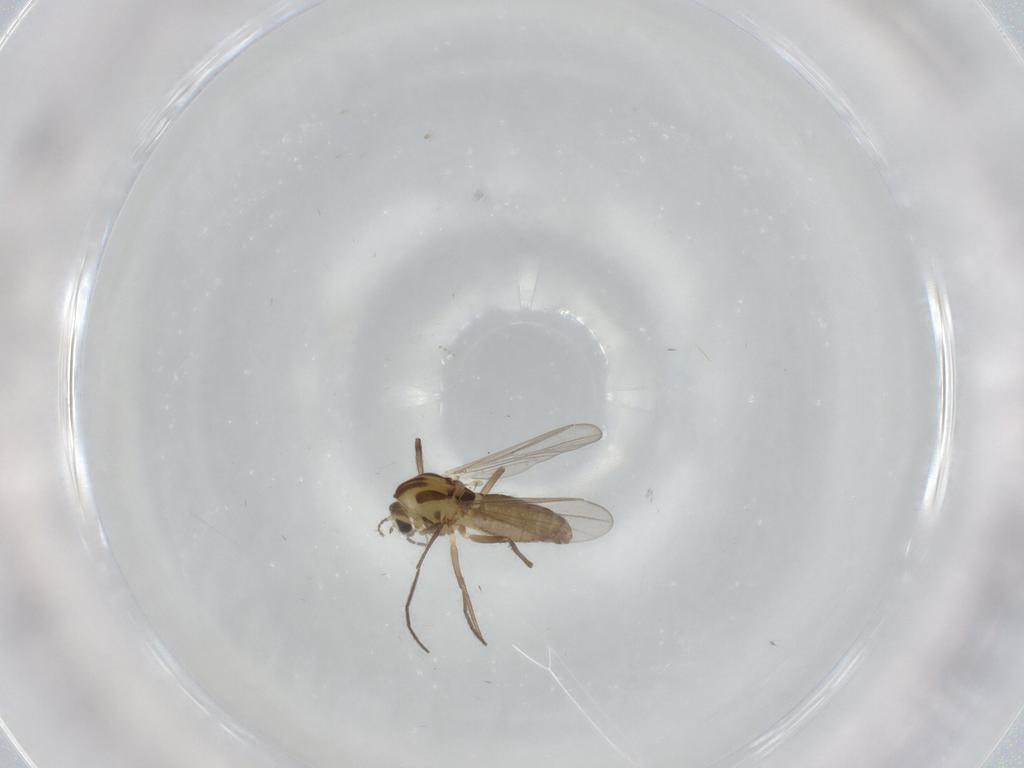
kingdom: Animalia
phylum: Arthropoda
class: Insecta
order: Diptera
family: Chironomidae
